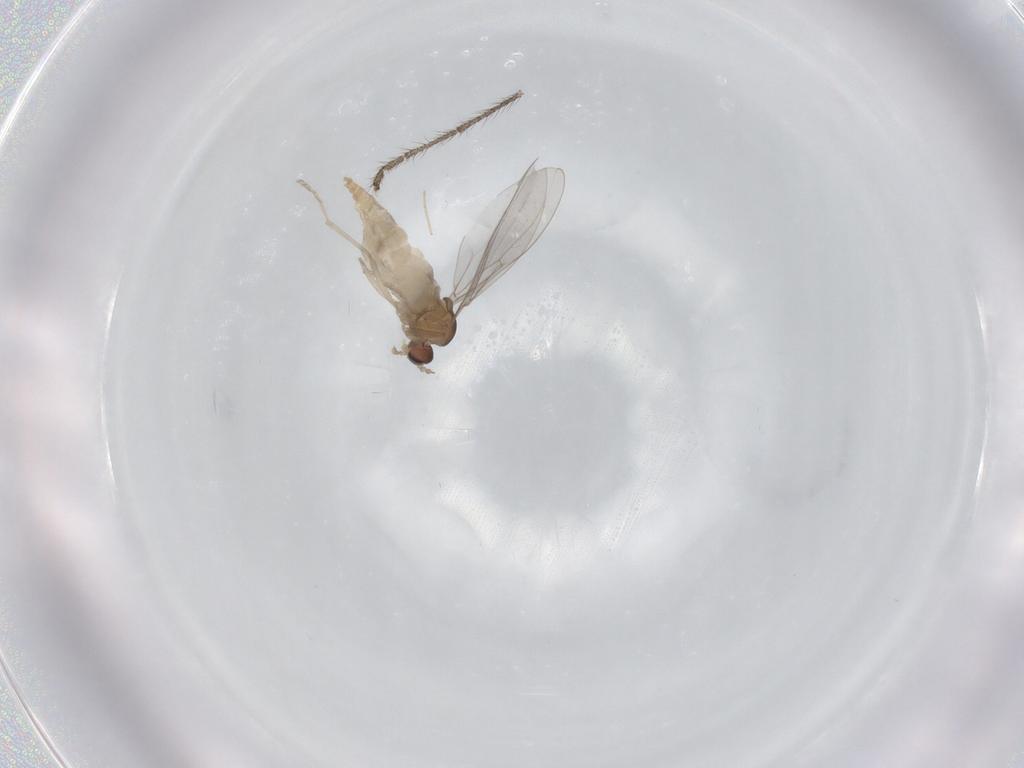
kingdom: Animalia
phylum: Arthropoda
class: Insecta
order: Diptera
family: Cecidomyiidae
